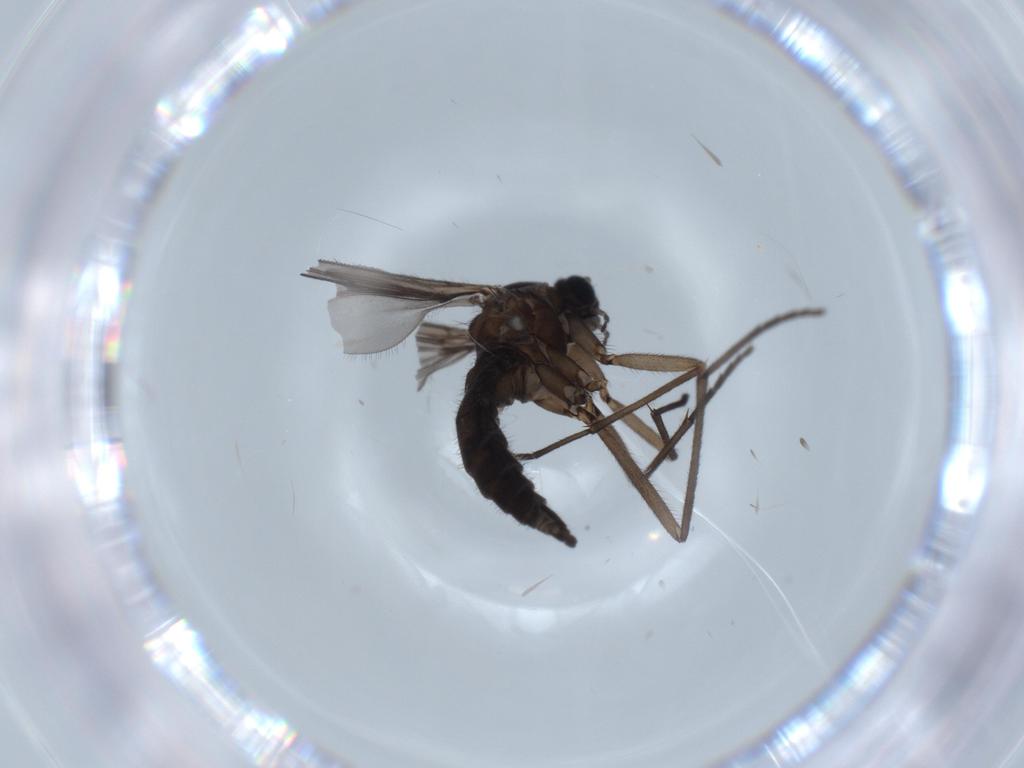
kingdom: Animalia
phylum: Arthropoda
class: Insecta
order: Diptera
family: Sciaridae
